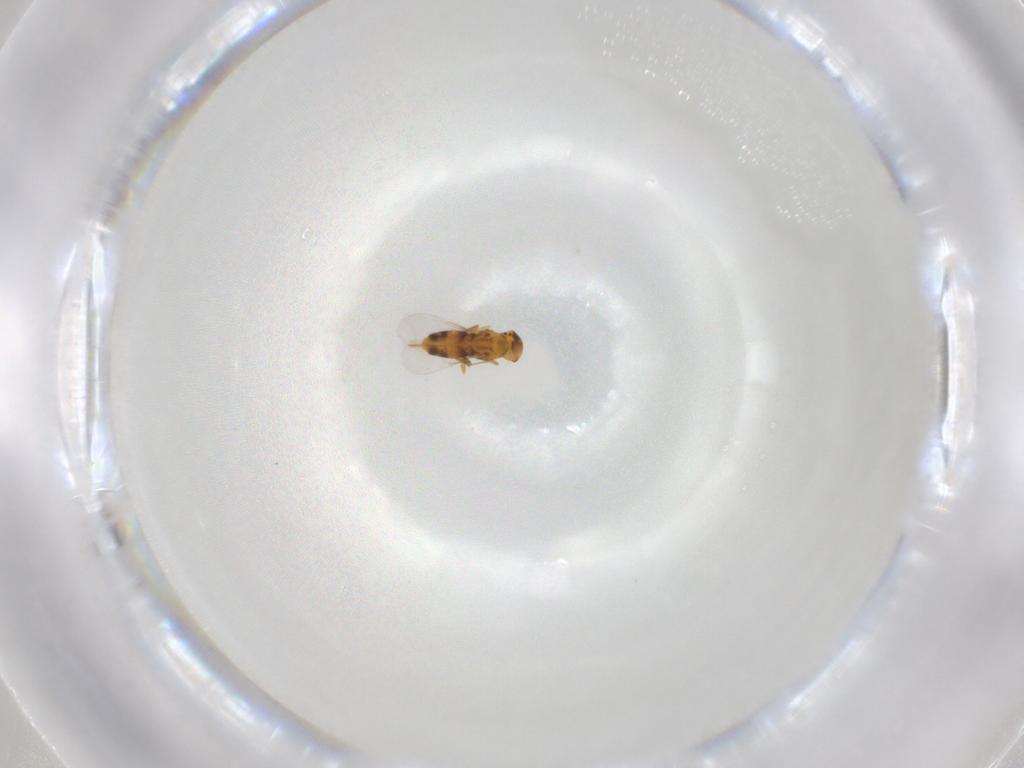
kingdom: Animalia
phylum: Arthropoda
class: Insecta
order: Hymenoptera
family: Aphelinidae
